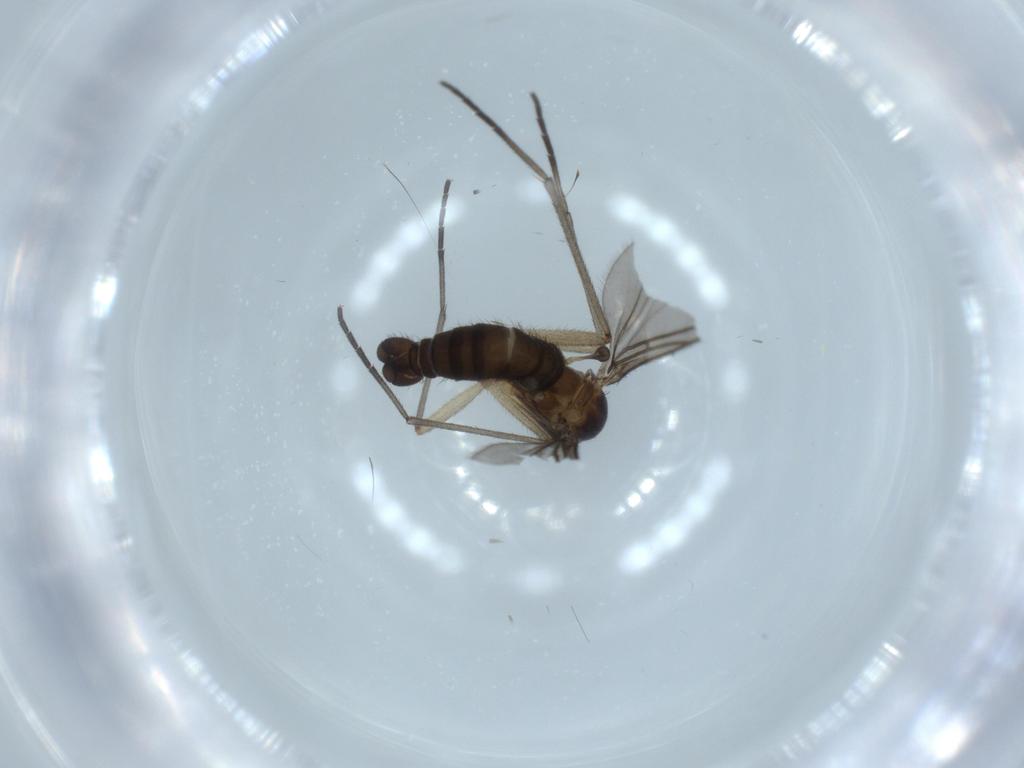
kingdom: Animalia
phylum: Arthropoda
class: Insecta
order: Diptera
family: Sciaridae
